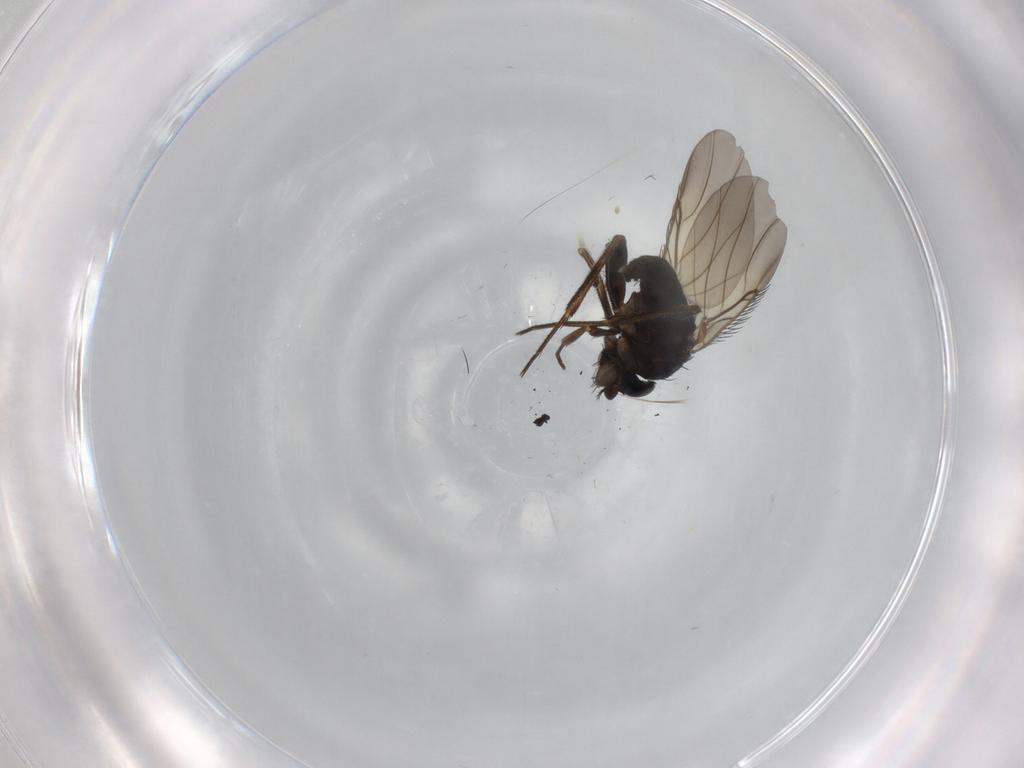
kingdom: Animalia
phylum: Arthropoda
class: Insecta
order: Diptera
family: Phoridae
